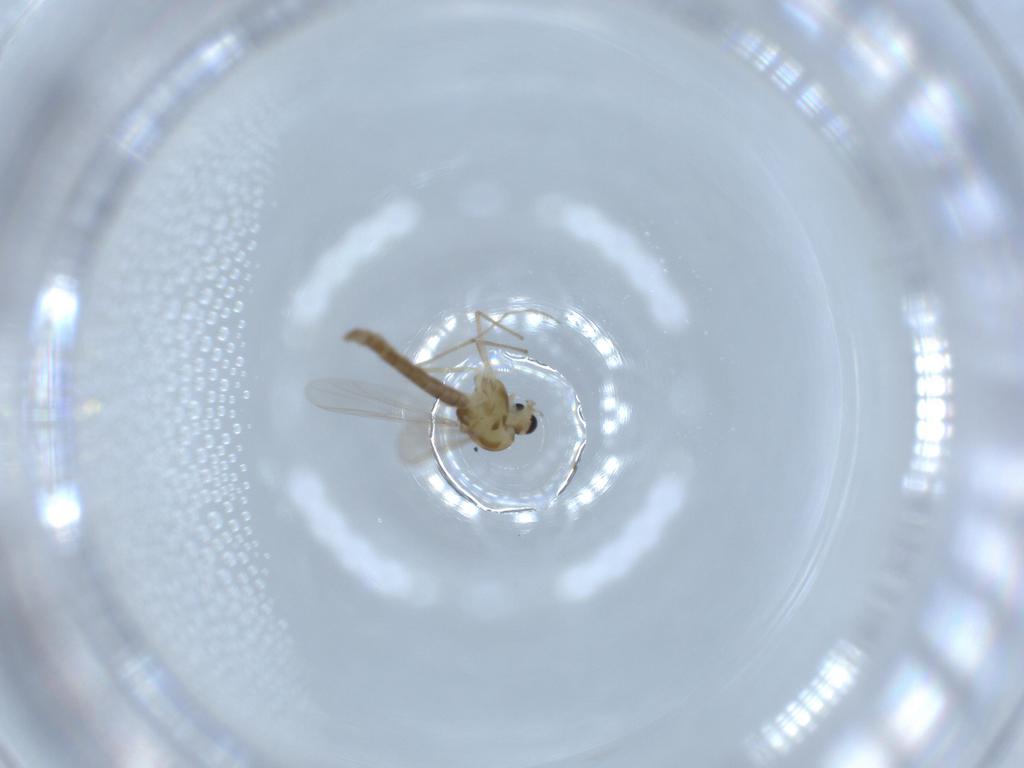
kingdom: Animalia
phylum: Arthropoda
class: Insecta
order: Diptera
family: Chironomidae
